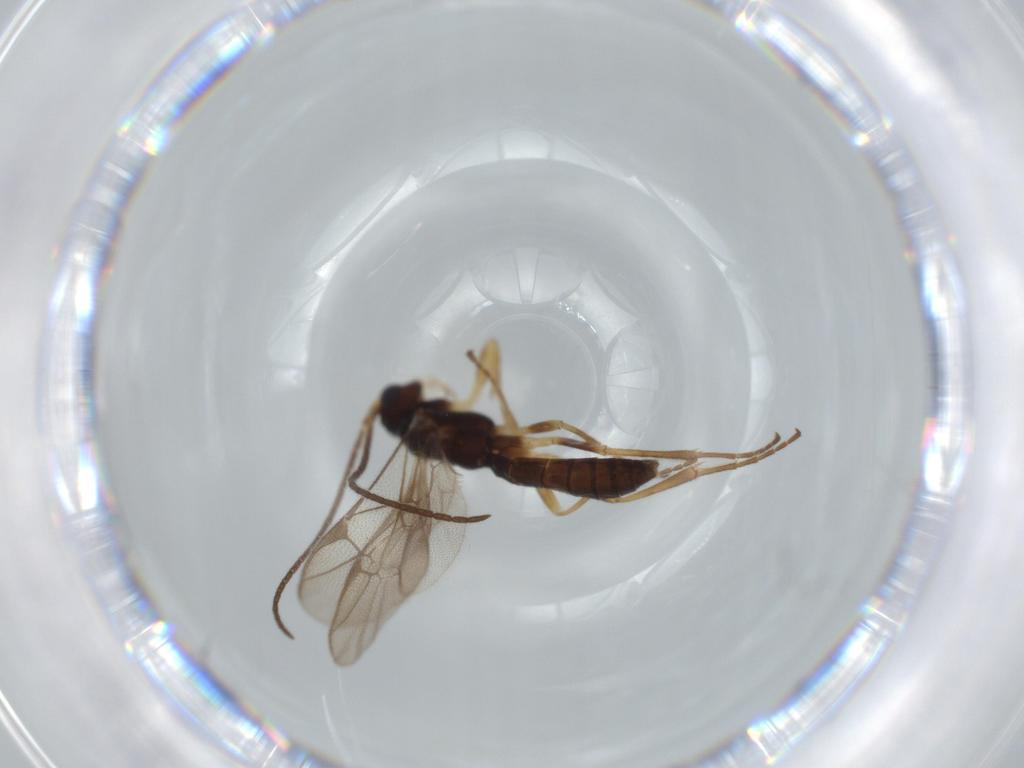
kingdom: Animalia
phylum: Arthropoda
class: Insecta
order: Hymenoptera
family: Ichneumonidae
